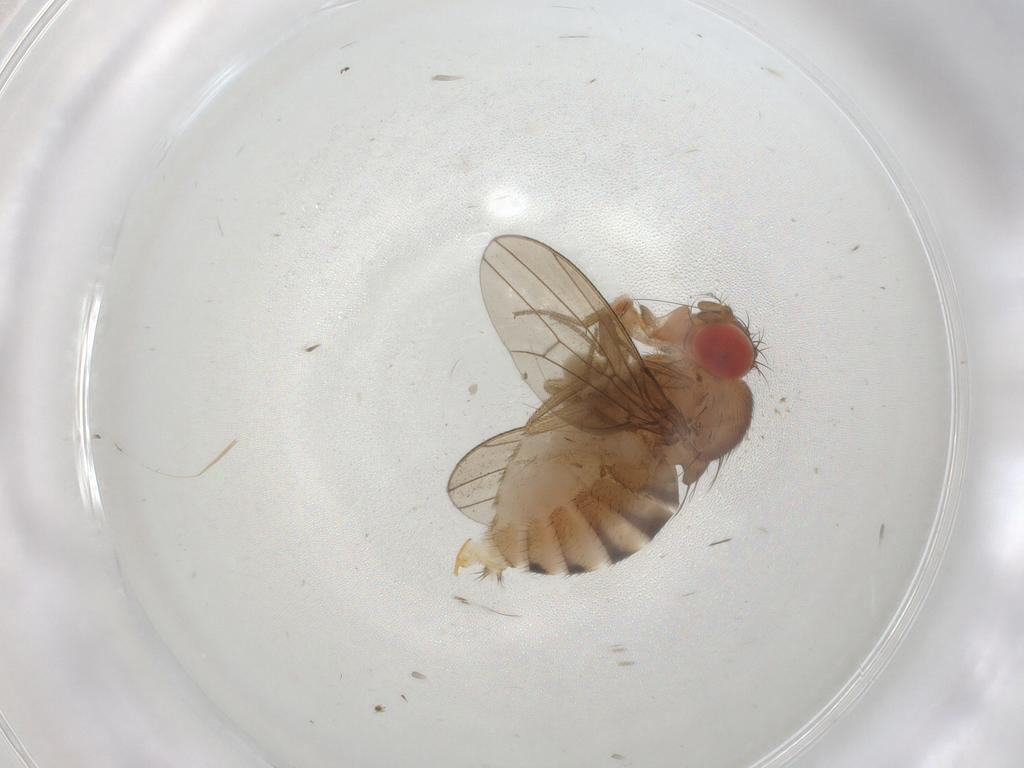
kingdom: Animalia
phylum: Arthropoda
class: Insecta
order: Diptera
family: Drosophilidae
